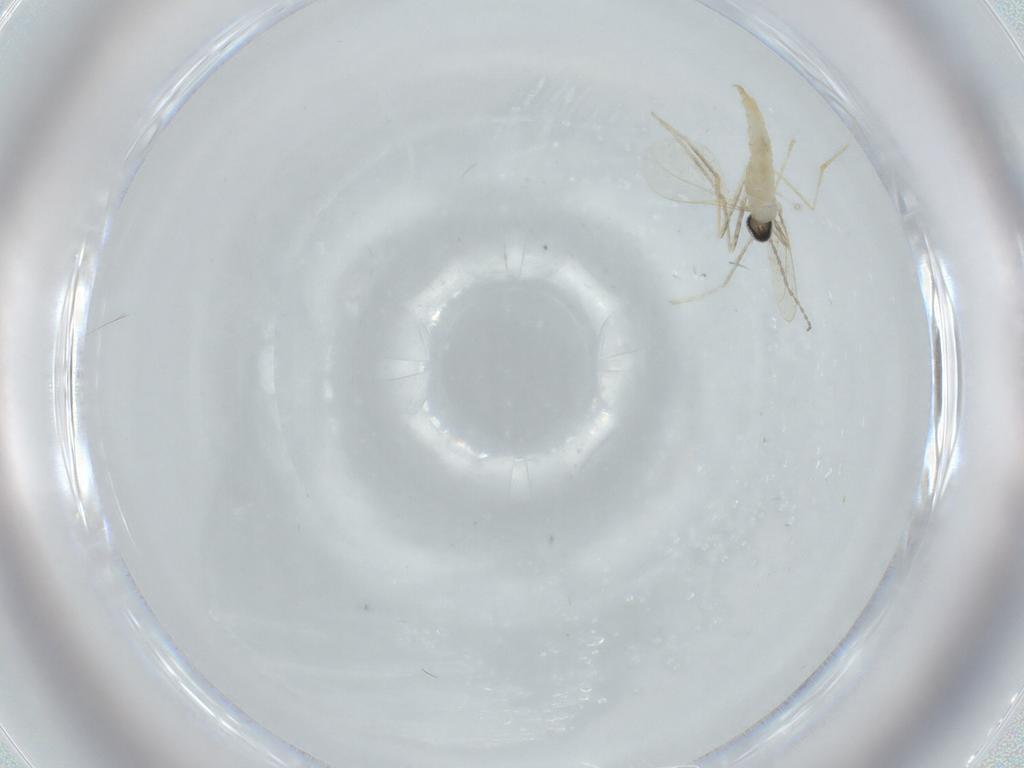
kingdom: Animalia
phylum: Arthropoda
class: Insecta
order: Diptera
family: Cecidomyiidae
